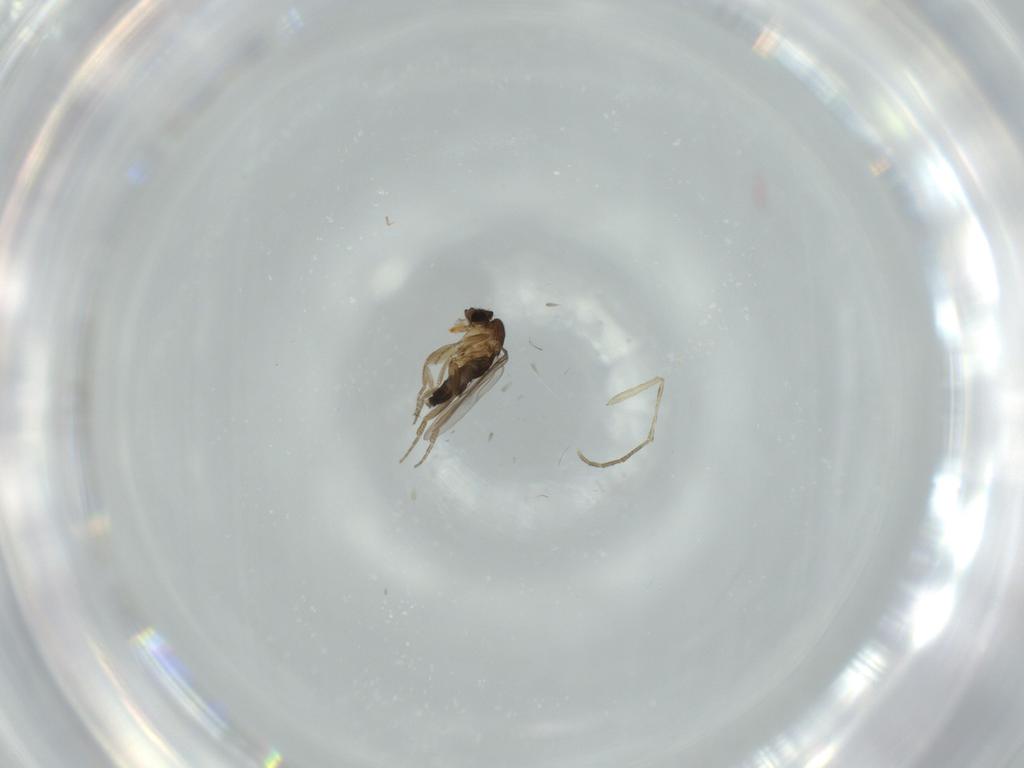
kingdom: Animalia
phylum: Arthropoda
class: Insecta
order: Diptera
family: Phoridae
